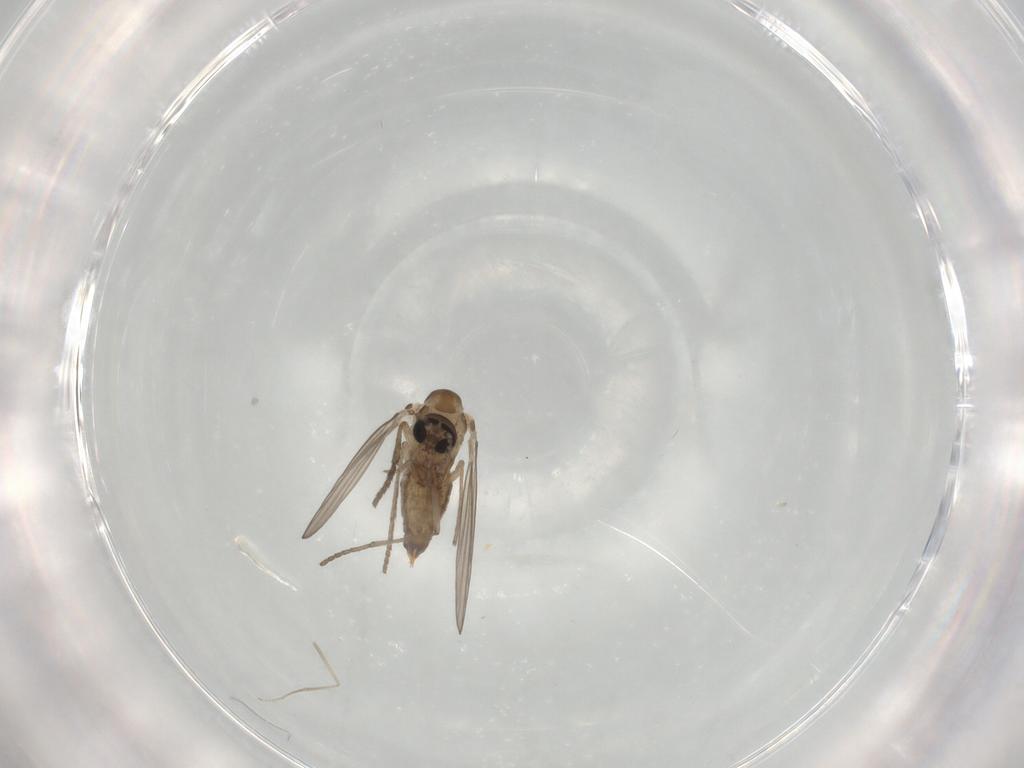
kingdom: Animalia
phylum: Arthropoda
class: Insecta
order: Diptera
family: Psychodidae
